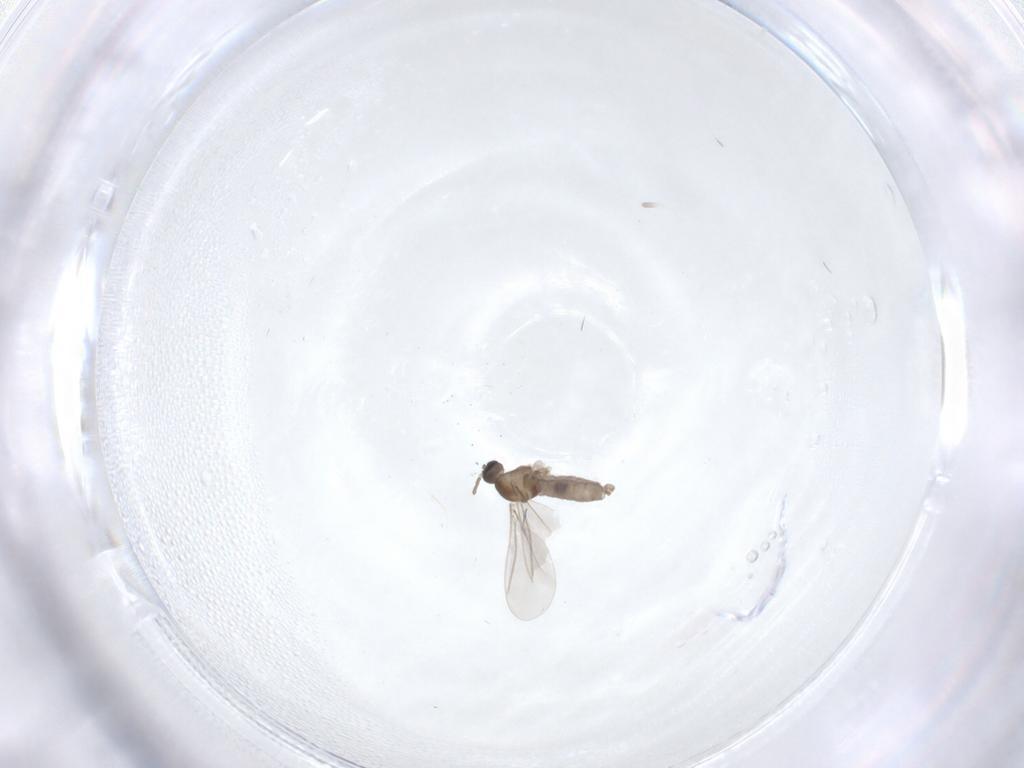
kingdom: Animalia
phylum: Arthropoda
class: Insecta
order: Diptera
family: Cecidomyiidae
